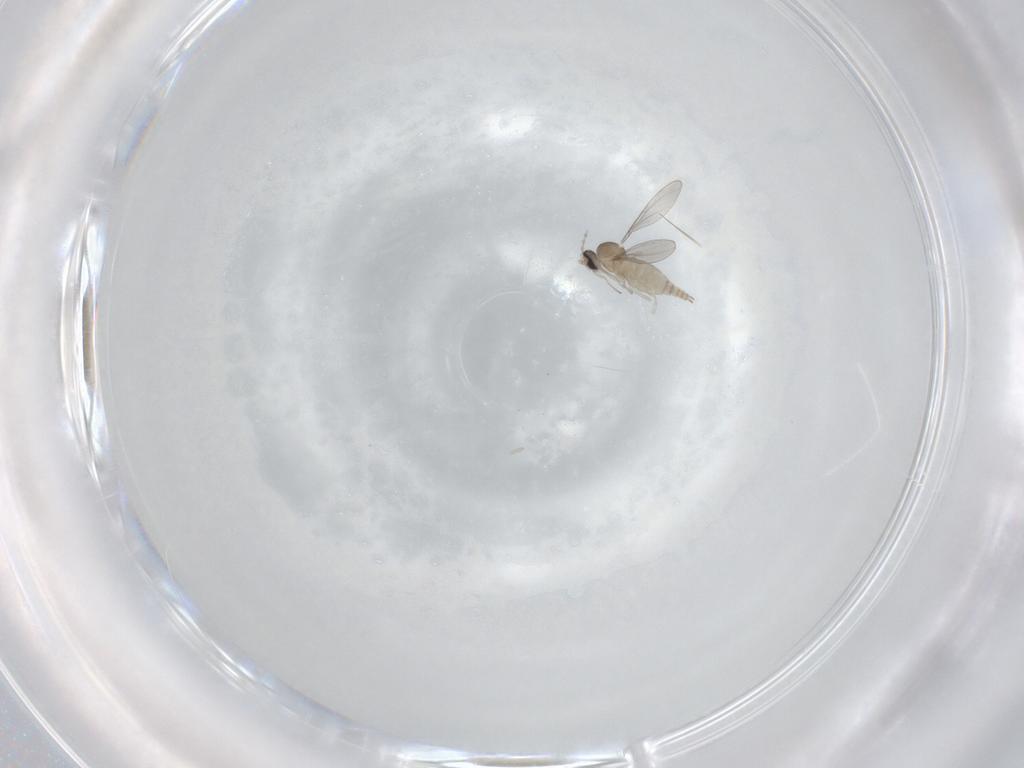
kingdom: Animalia
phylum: Arthropoda
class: Insecta
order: Diptera
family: Cecidomyiidae
